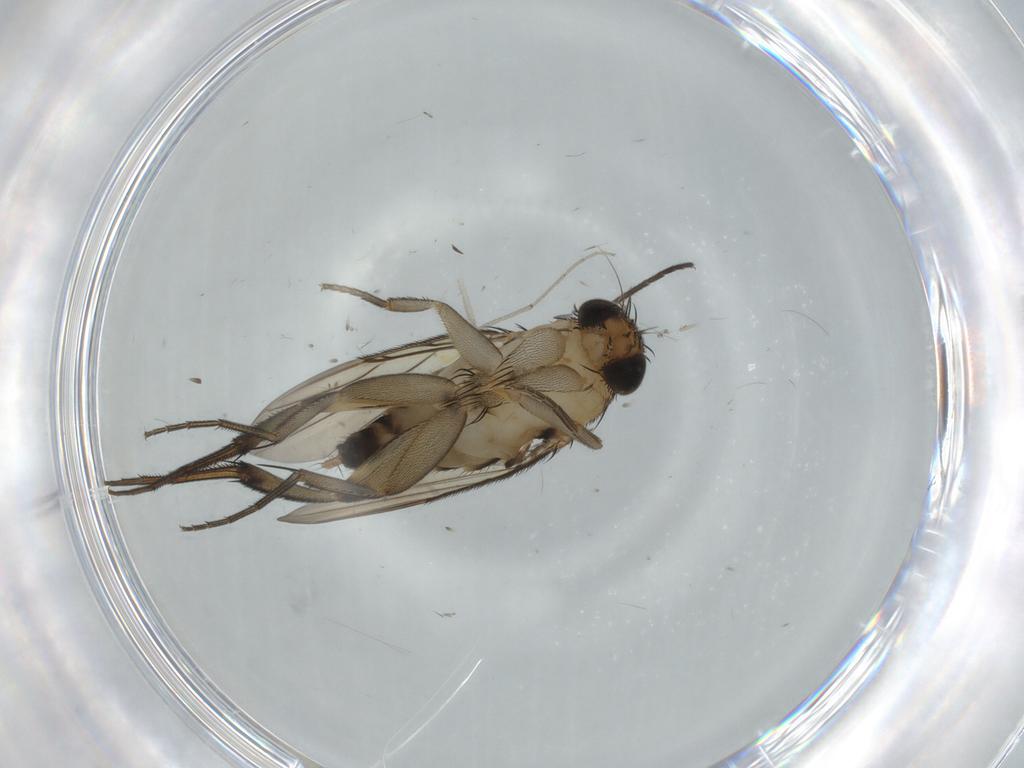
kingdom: Animalia
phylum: Arthropoda
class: Insecta
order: Diptera
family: Phoridae
